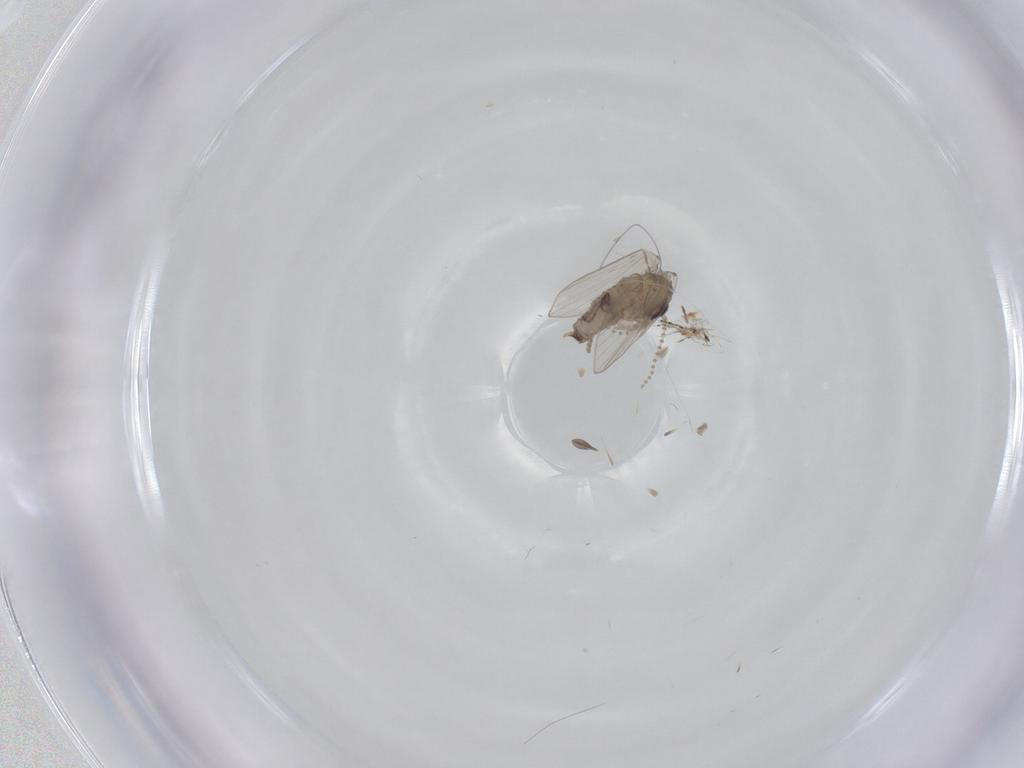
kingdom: Animalia
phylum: Arthropoda
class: Insecta
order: Diptera
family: Psychodidae
